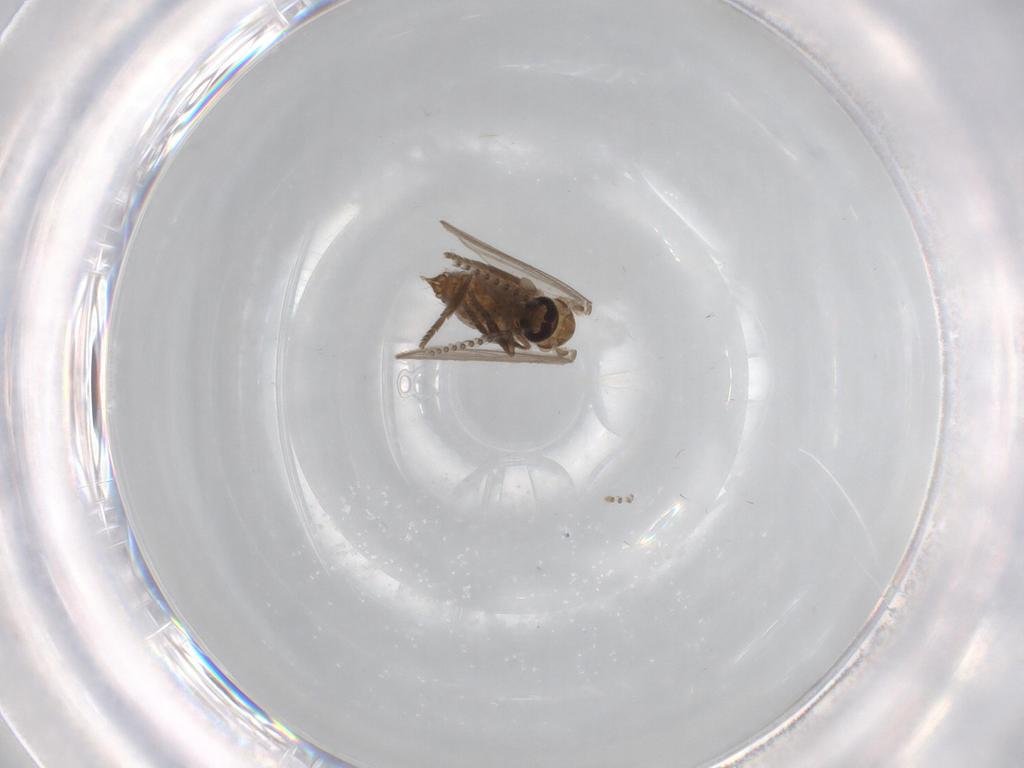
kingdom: Animalia
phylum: Arthropoda
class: Insecta
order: Diptera
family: Psychodidae
